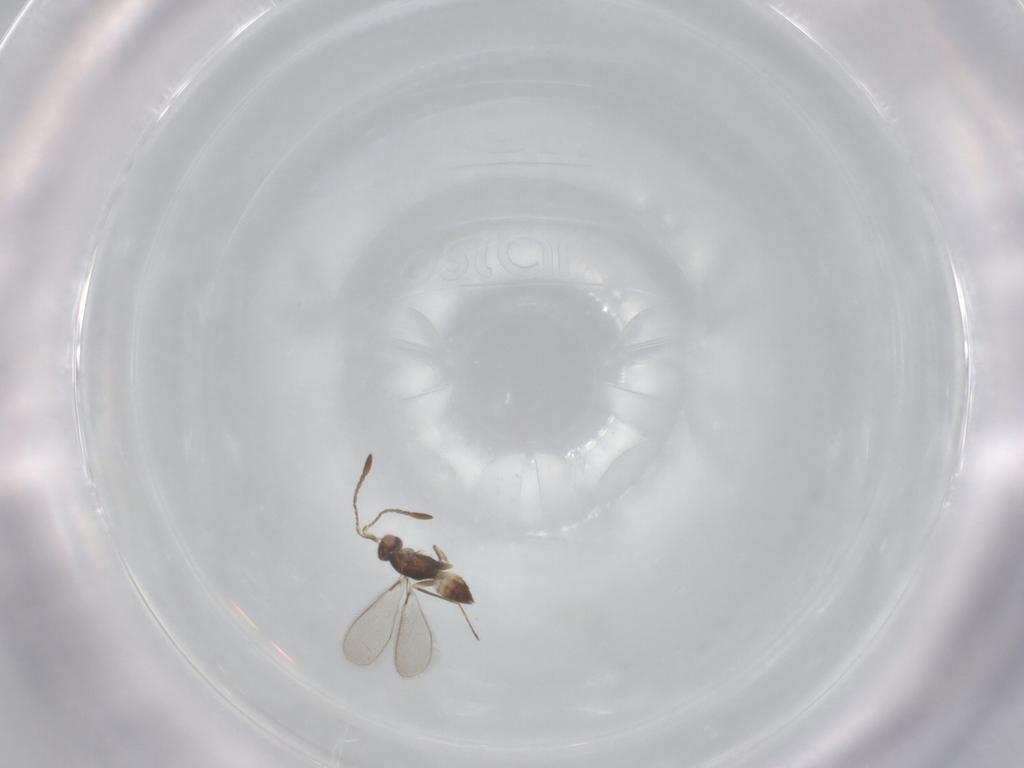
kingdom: Animalia
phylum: Arthropoda
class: Insecta
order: Hymenoptera
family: Mymaridae
